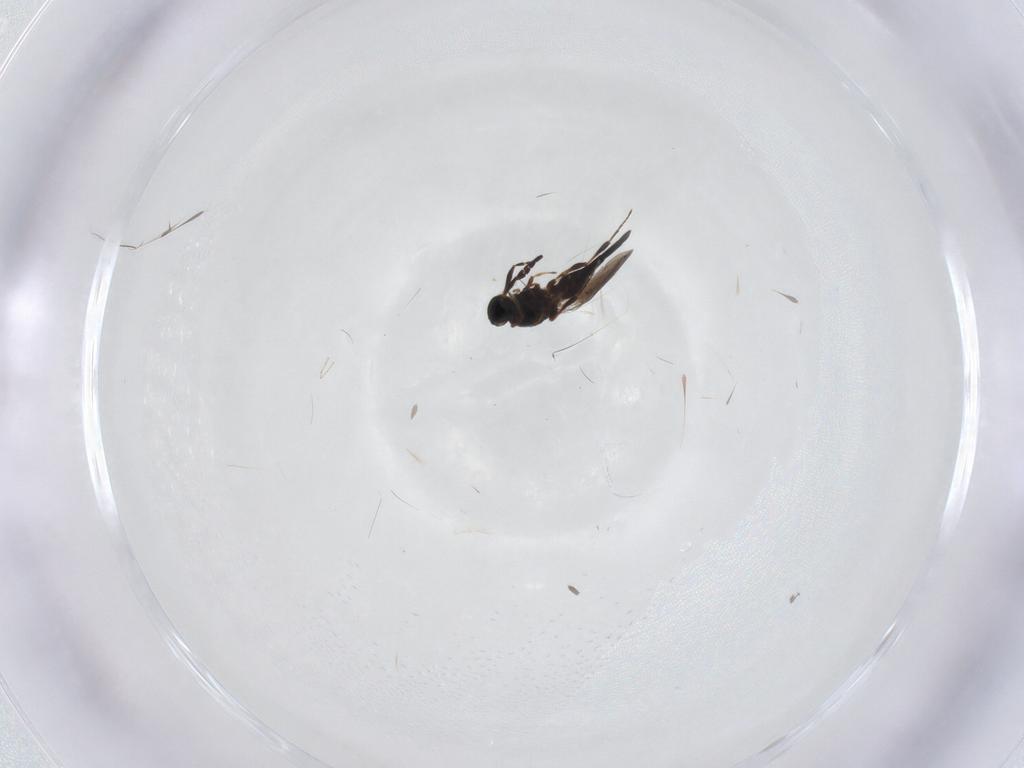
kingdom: Animalia
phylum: Arthropoda
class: Insecta
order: Hymenoptera
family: Platygastridae
